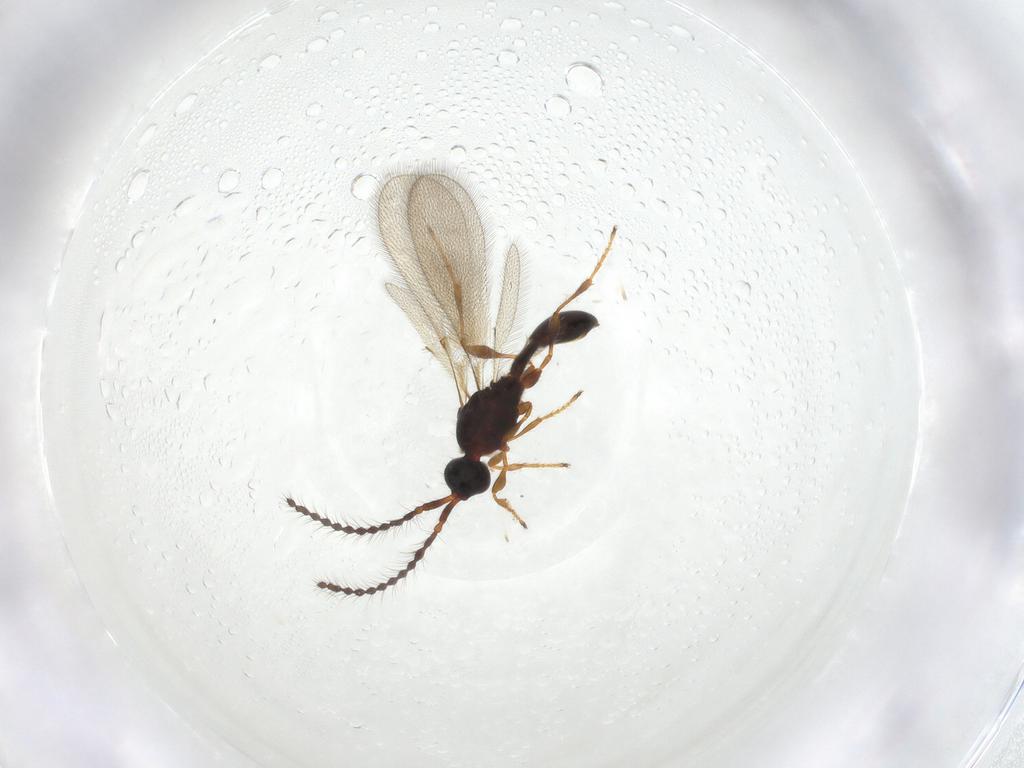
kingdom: Animalia
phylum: Arthropoda
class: Insecta
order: Hymenoptera
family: Diapriidae
